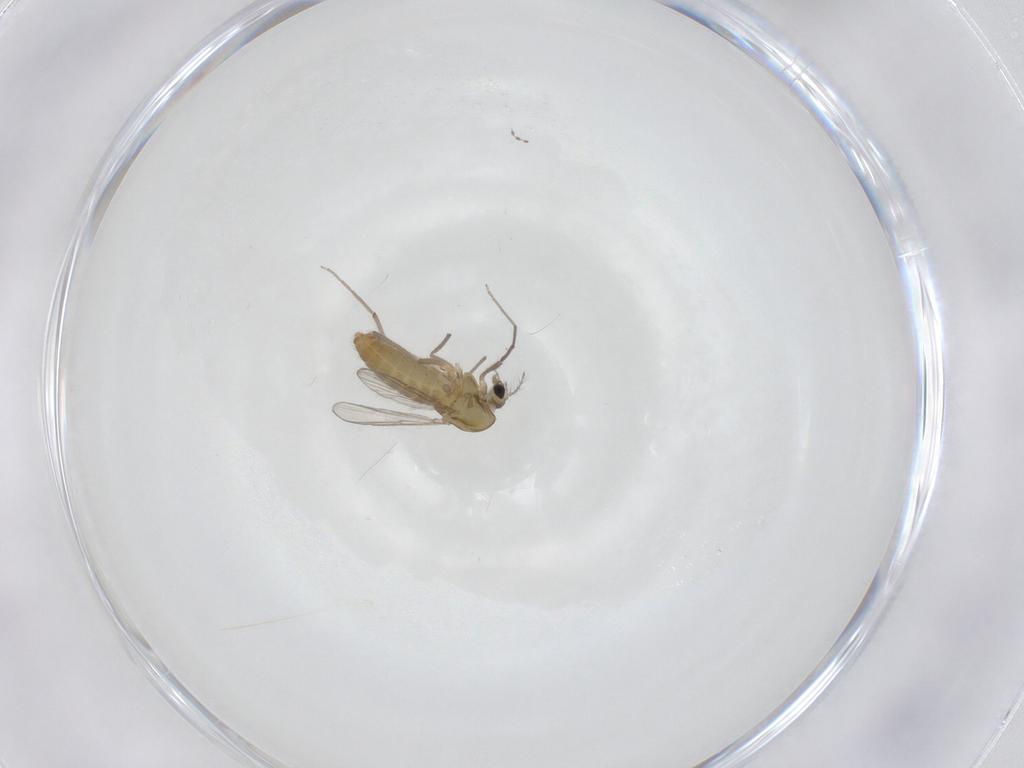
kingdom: Animalia
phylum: Arthropoda
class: Insecta
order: Diptera
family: Chironomidae
